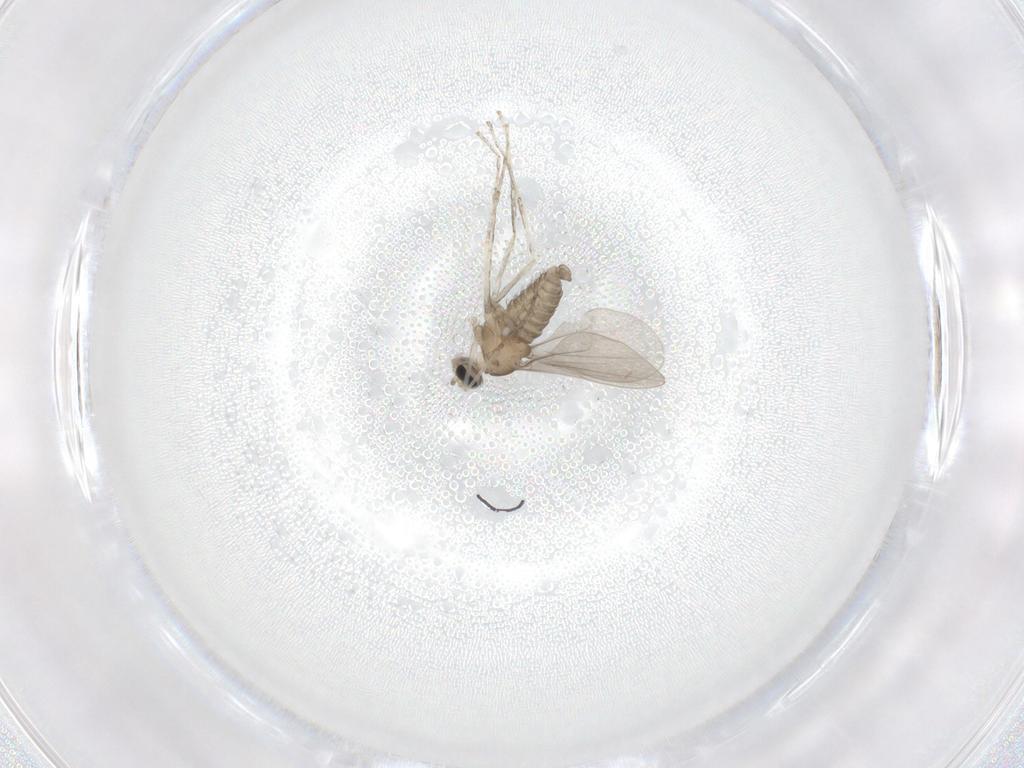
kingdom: Animalia
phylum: Arthropoda
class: Insecta
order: Diptera
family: Cecidomyiidae
